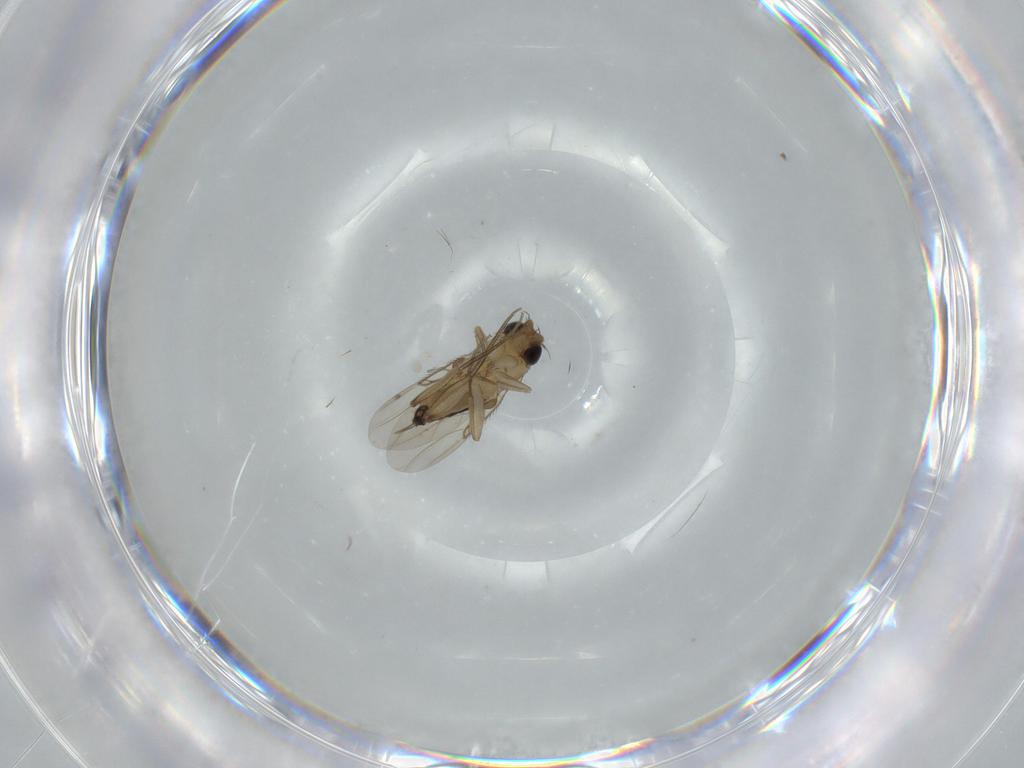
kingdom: Animalia
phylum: Arthropoda
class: Insecta
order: Diptera
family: Phoridae
